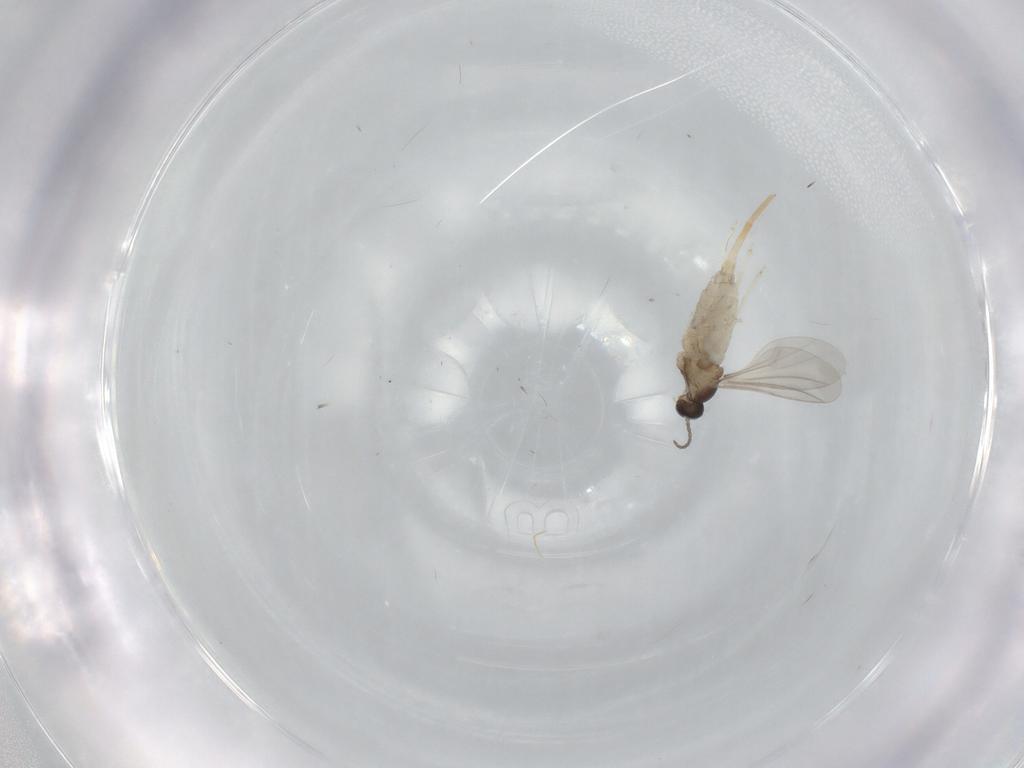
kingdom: Animalia
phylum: Arthropoda
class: Insecta
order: Diptera
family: Cecidomyiidae
